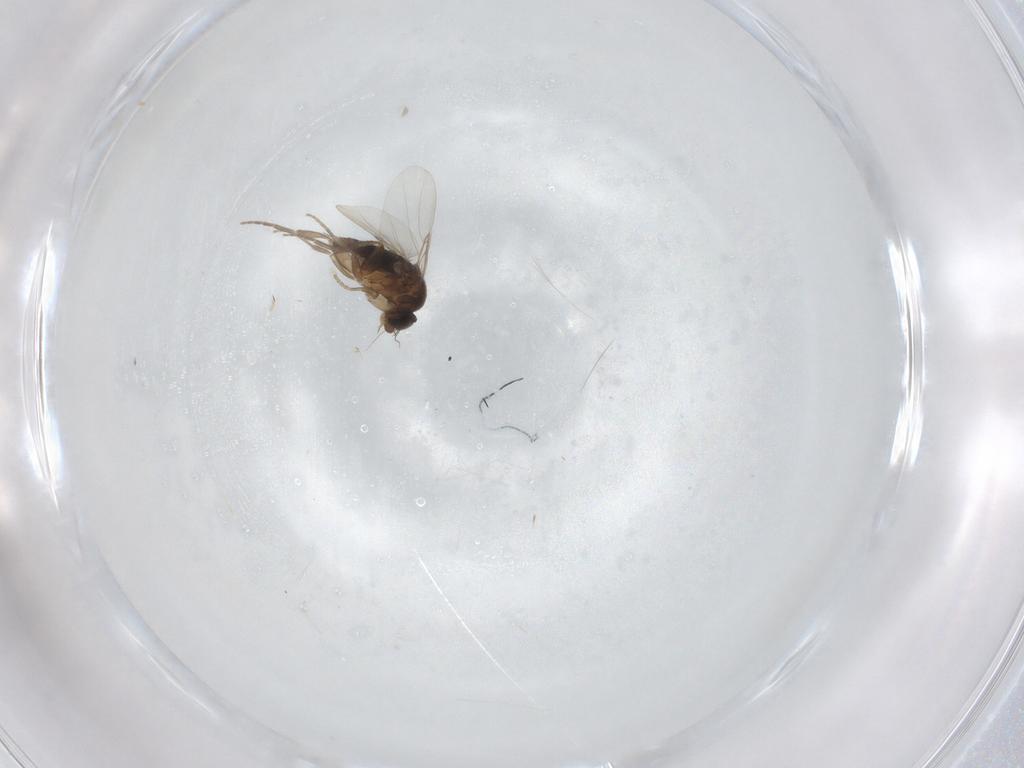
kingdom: Animalia
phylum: Arthropoda
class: Insecta
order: Diptera
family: Phoridae
